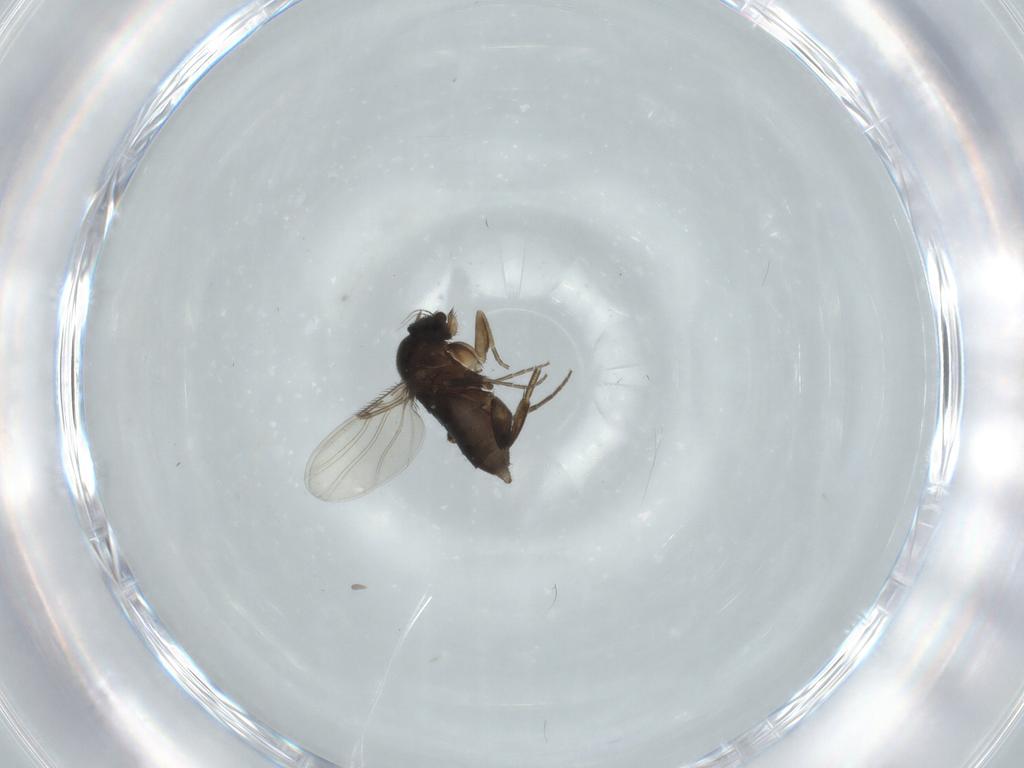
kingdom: Animalia
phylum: Arthropoda
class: Insecta
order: Diptera
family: Phoridae
